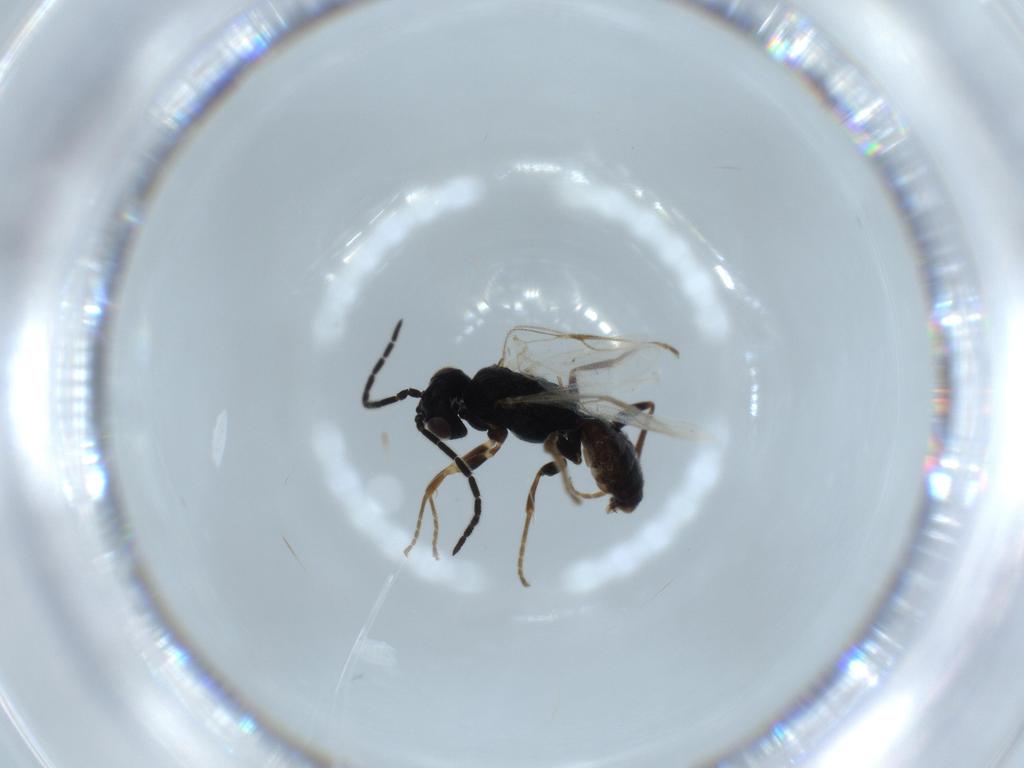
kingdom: Animalia
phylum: Arthropoda
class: Insecta
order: Hymenoptera
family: Dryinidae
